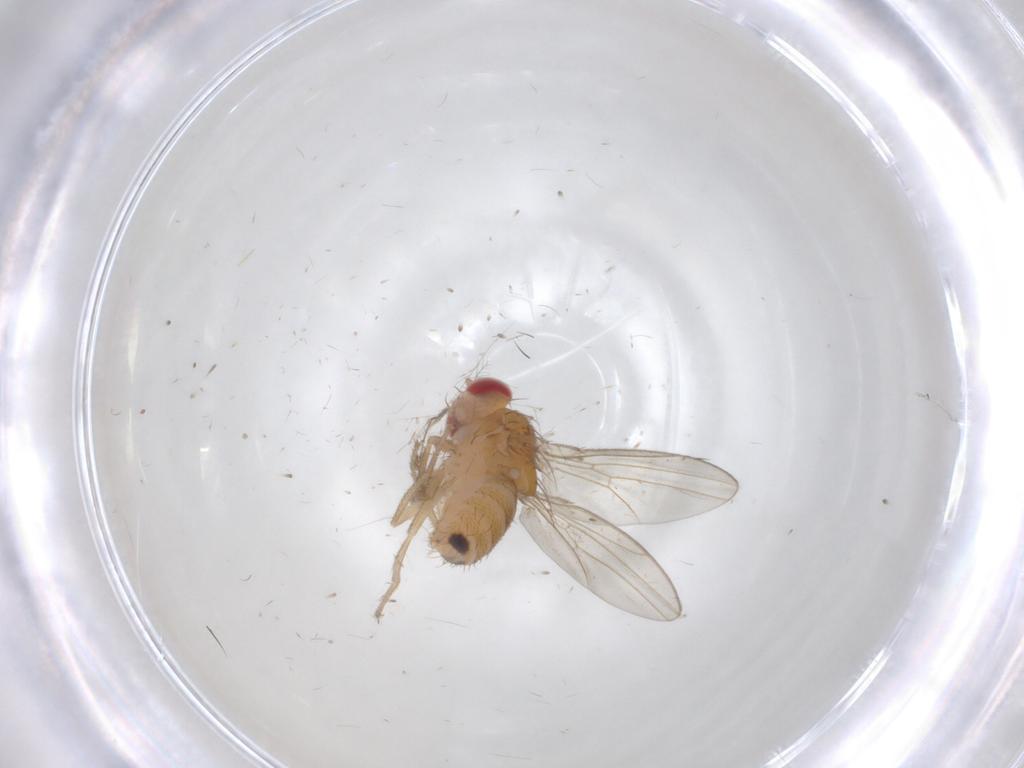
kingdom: Animalia
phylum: Arthropoda
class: Insecta
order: Diptera
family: Drosophilidae
